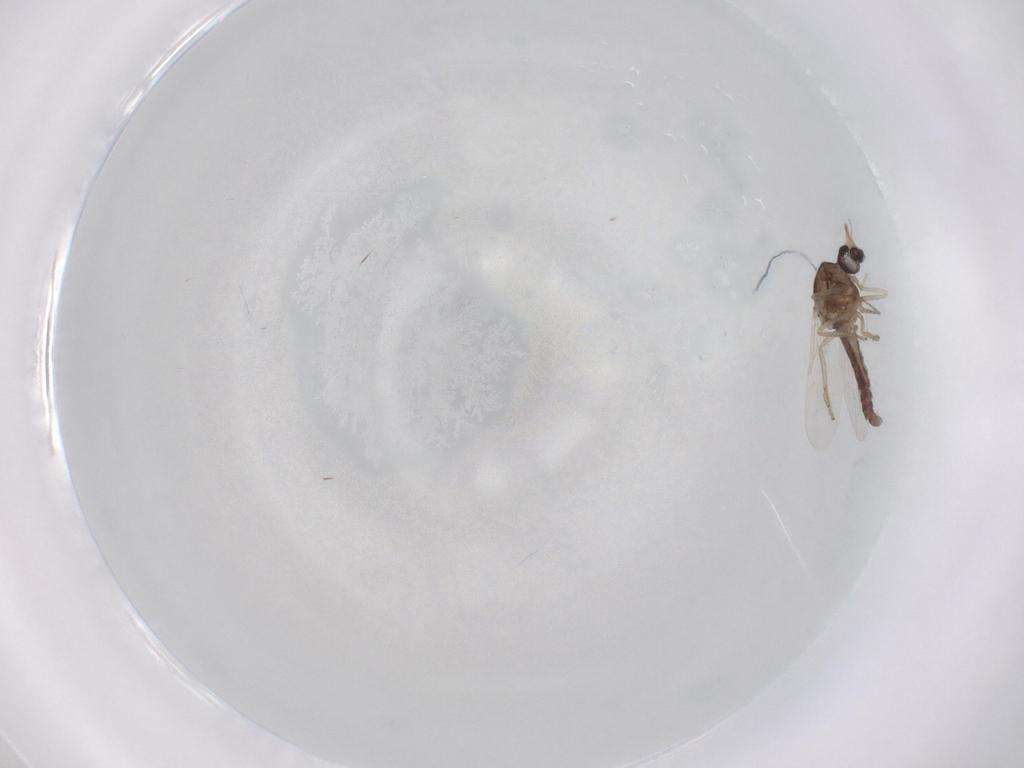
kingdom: Animalia
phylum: Arthropoda
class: Insecta
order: Diptera
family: Ceratopogonidae
